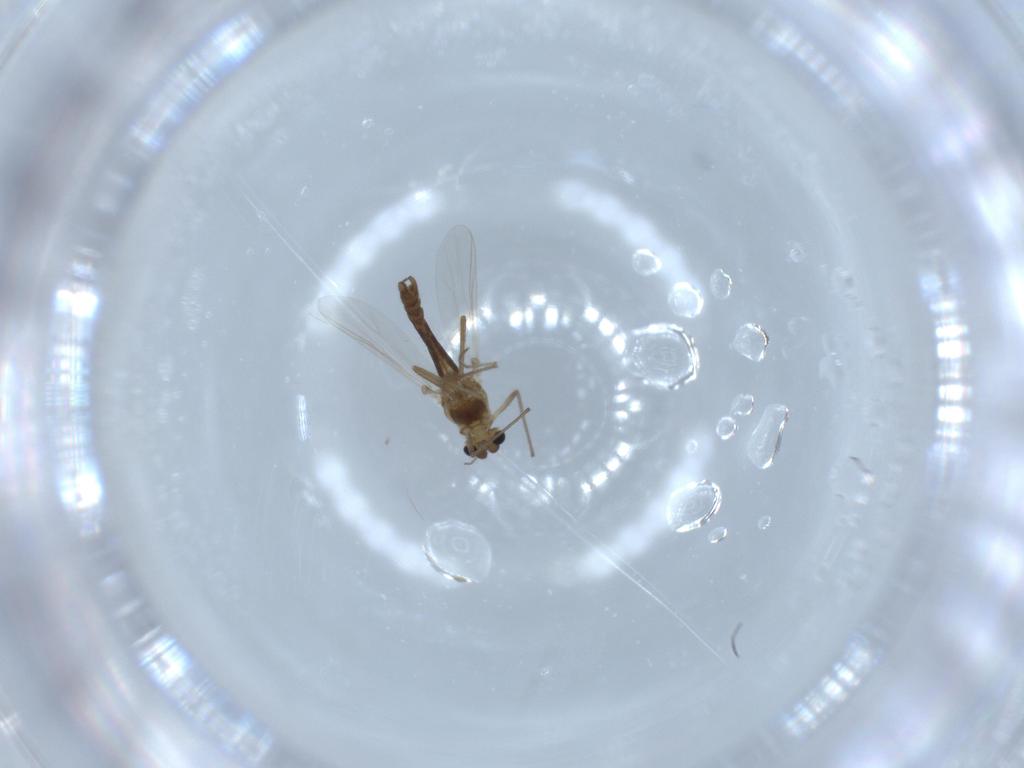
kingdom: Animalia
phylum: Arthropoda
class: Insecta
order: Diptera
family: Chironomidae
